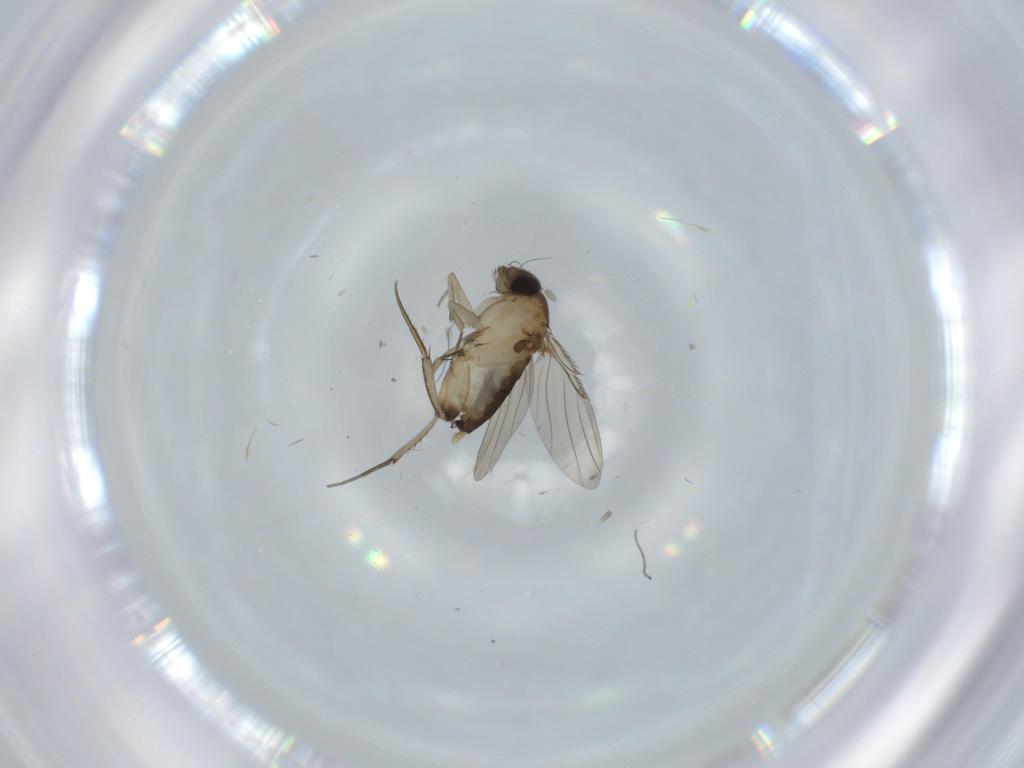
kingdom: Animalia
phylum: Arthropoda
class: Insecta
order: Diptera
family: Phoridae
